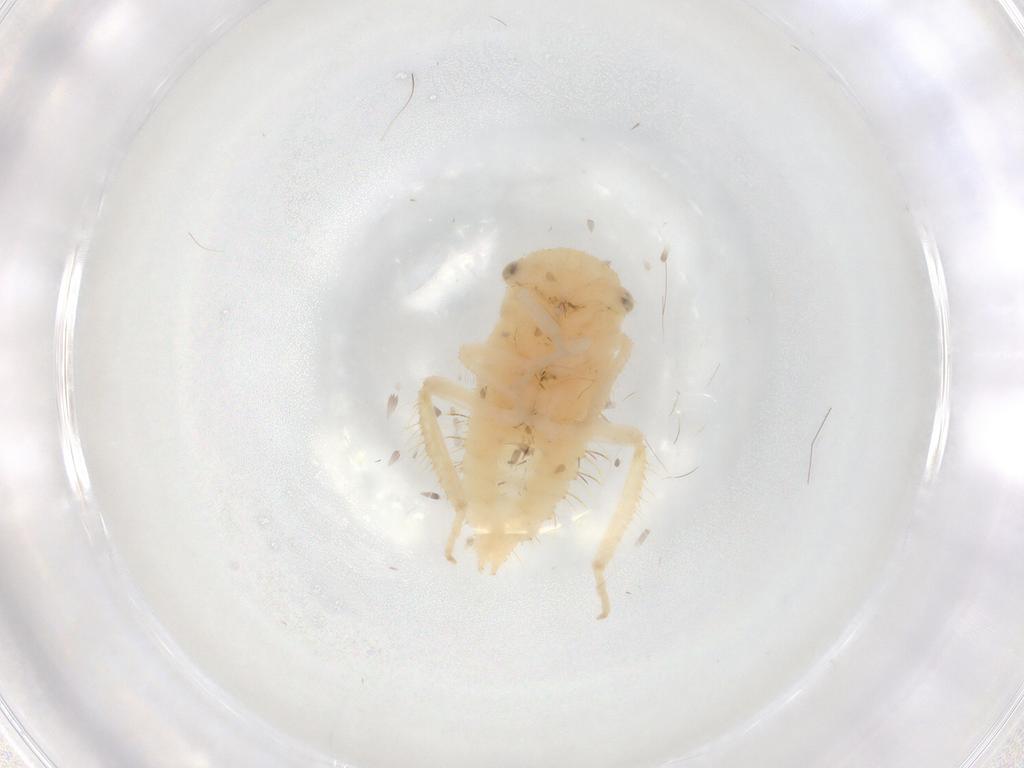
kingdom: Animalia
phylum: Arthropoda
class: Insecta
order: Hemiptera
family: Cicadellidae
